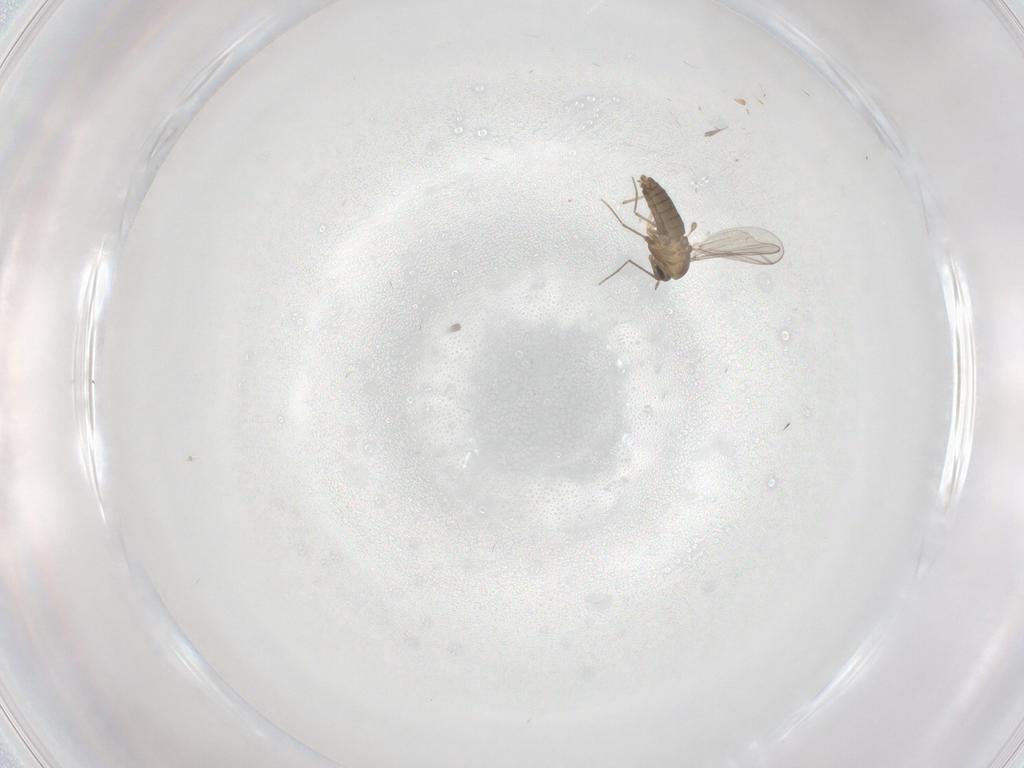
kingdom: Animalia
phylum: Arthropoda
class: Insecta
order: Diptera
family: Chironomidae
